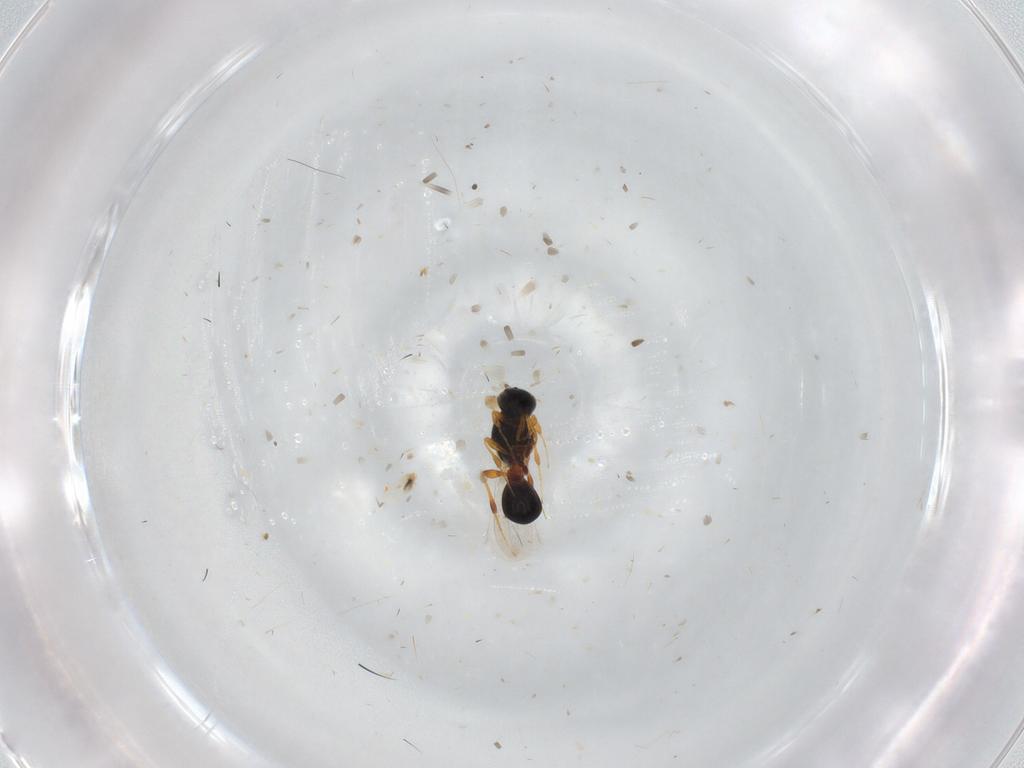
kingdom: Animalia
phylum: Arthropoda
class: Insecta
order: Hymenoptera
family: Platygastridae
